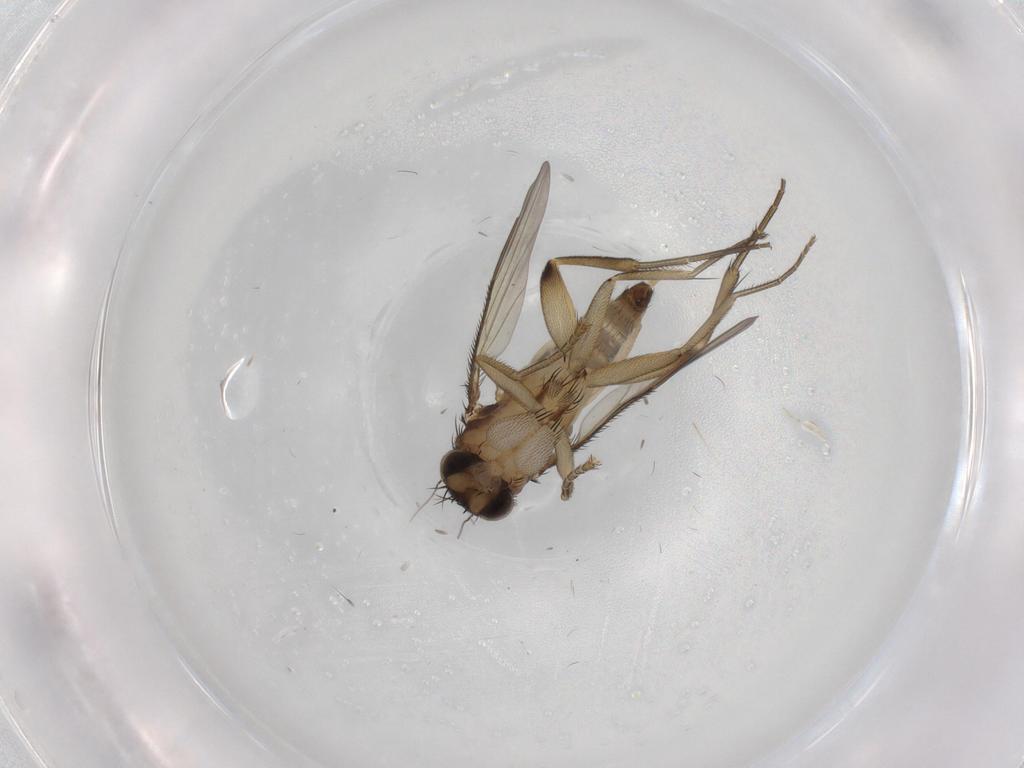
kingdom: Animalia
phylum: Arthropoda
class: Insecta
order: Diptera
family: Phoridae
